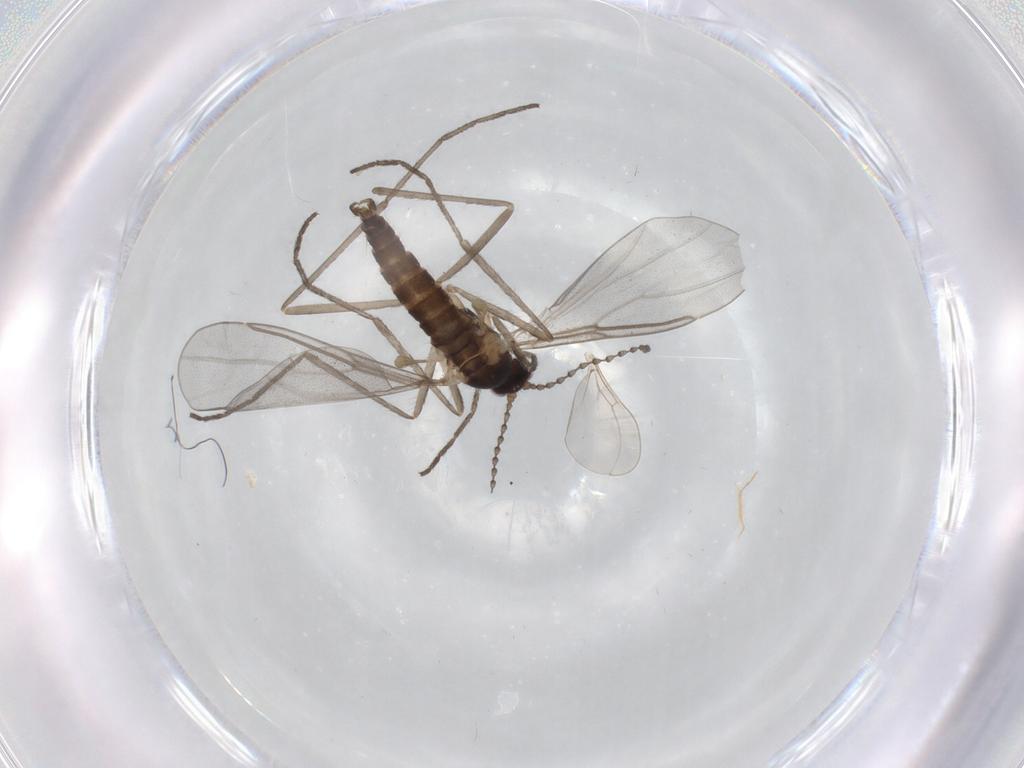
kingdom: Animalia
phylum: Arthropoda
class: Insecta
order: Diptera
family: Cecidomyiidae
